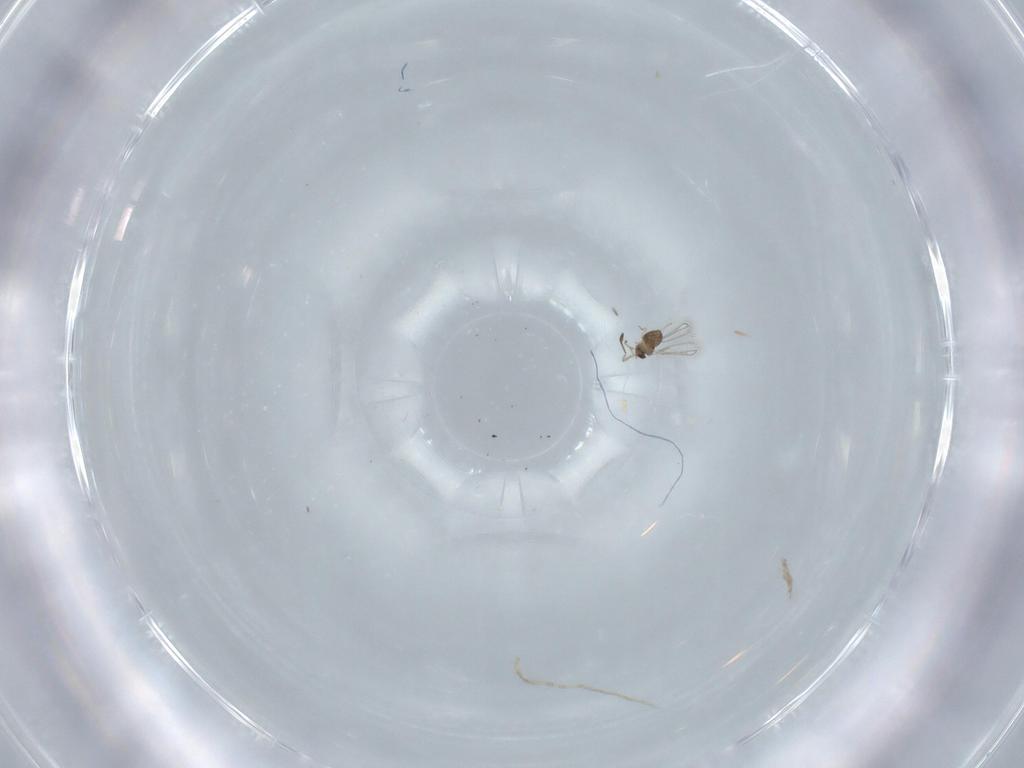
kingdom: Animalia
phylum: Arthropoda
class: Insecta
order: Hymenoptera
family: Mymaridae
